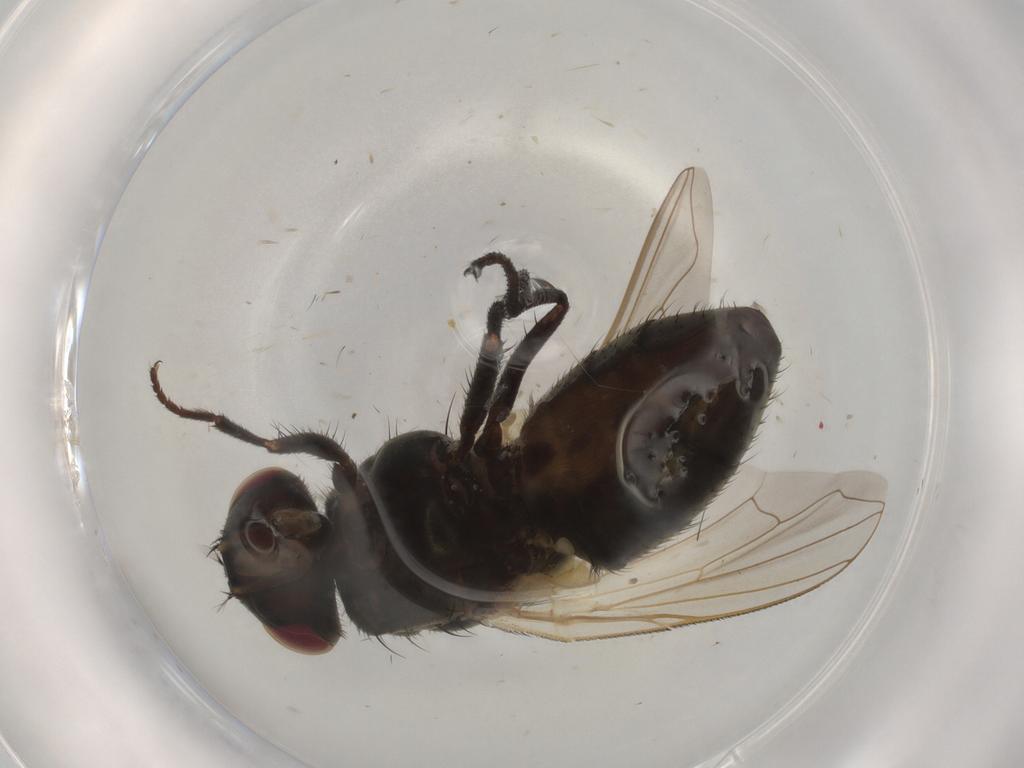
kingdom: Animalia
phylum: Arthropoda
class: Insecta
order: Diptera
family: Muscidae
